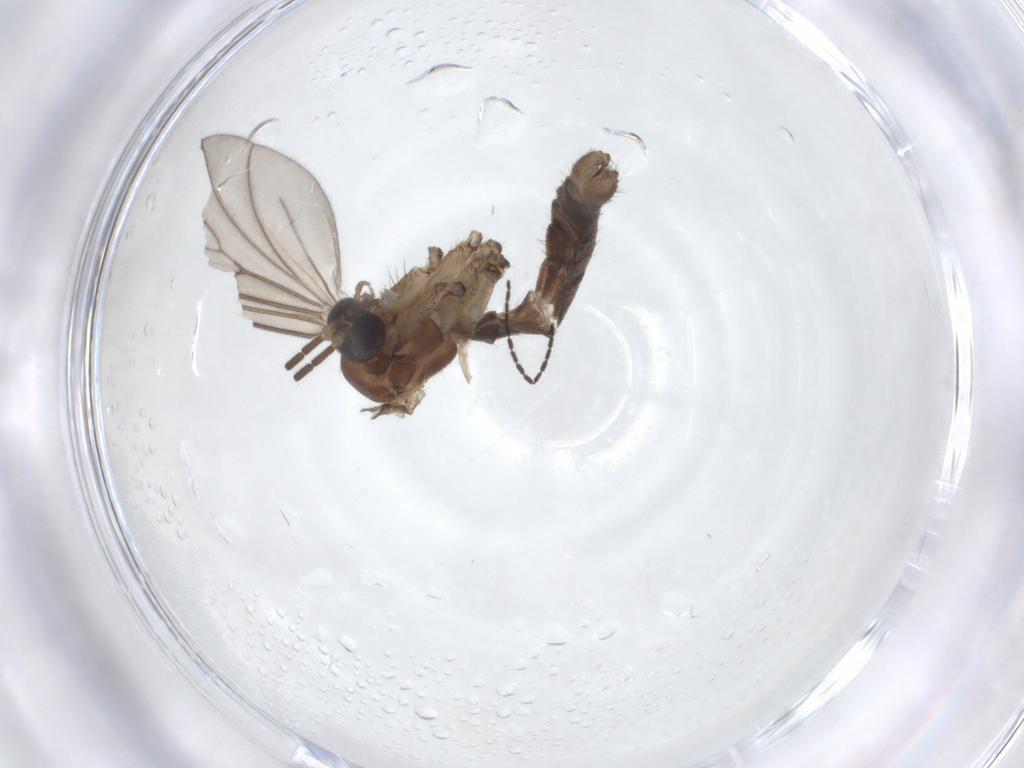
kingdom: Animalia
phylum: Arthropoda
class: Insecta
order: Diptera
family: Mycetophilidae
